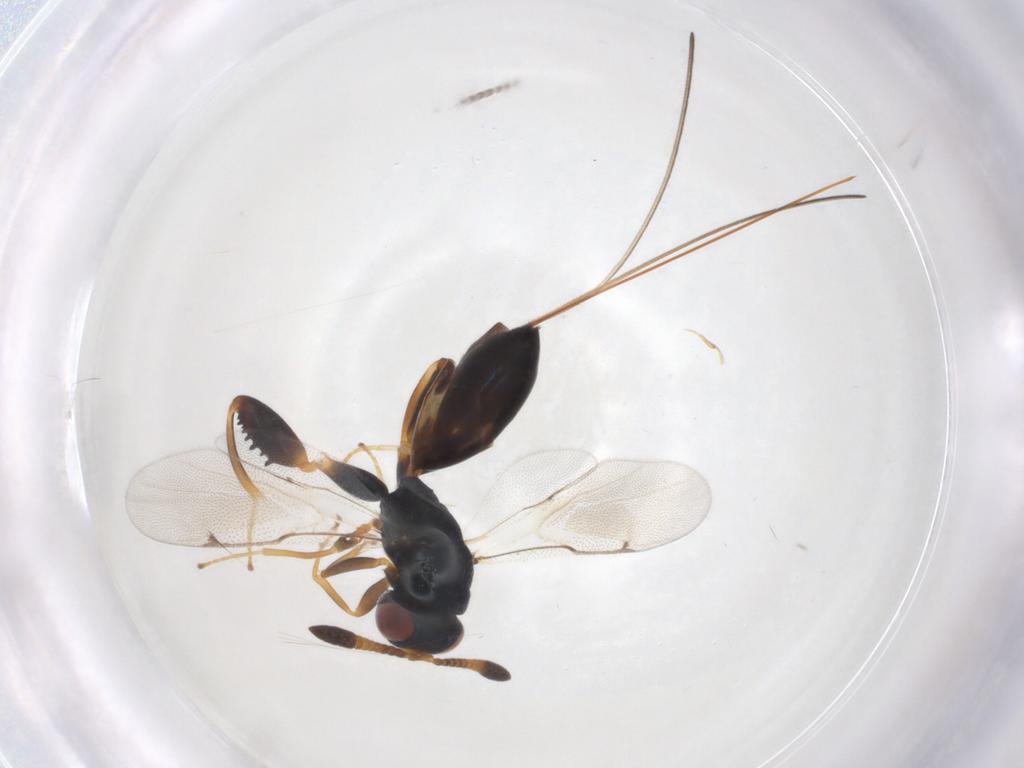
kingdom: Animalia
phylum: Arthropoda
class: Insecta
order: Hymenoptera
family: Torymidae
